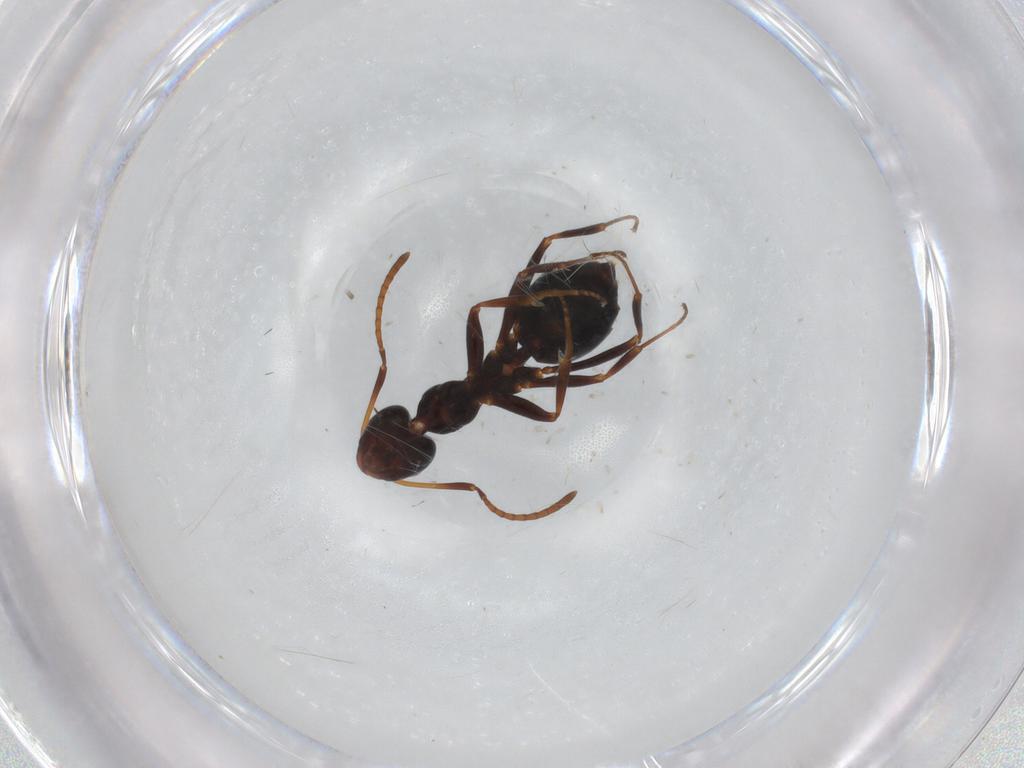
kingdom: Animalia
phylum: Arthropoda
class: Insecta
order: Hymenoptera
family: Formicidae
